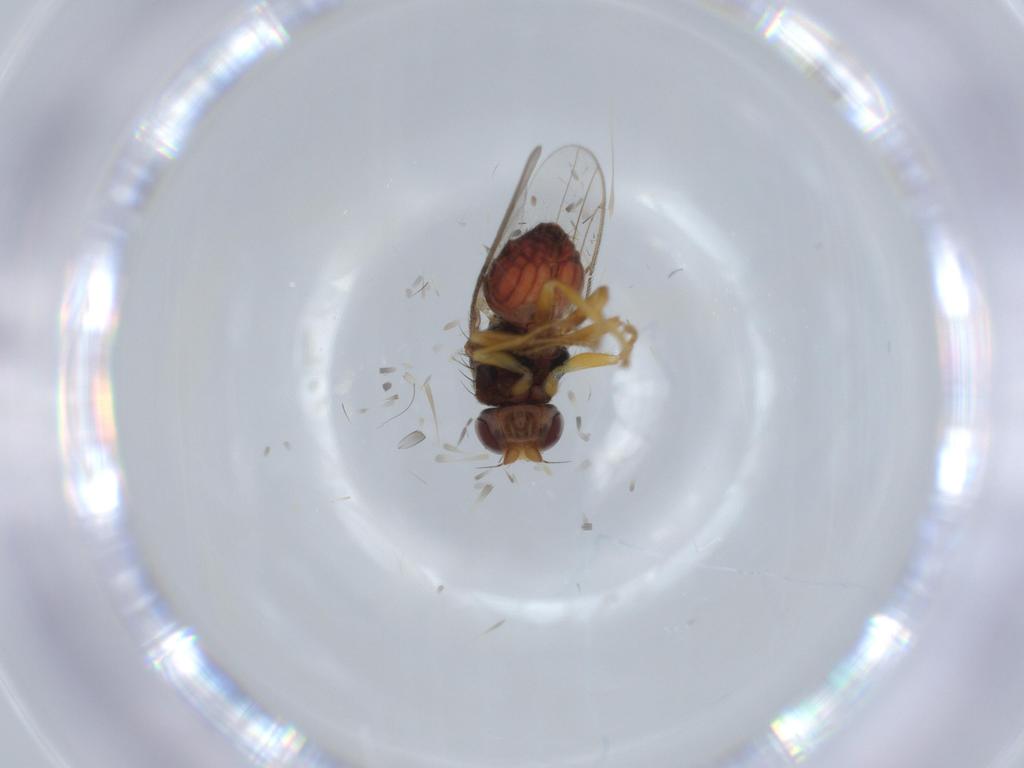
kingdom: Animalia
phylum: Arthropoda
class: Insecta
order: Diptera
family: Chloropidae
